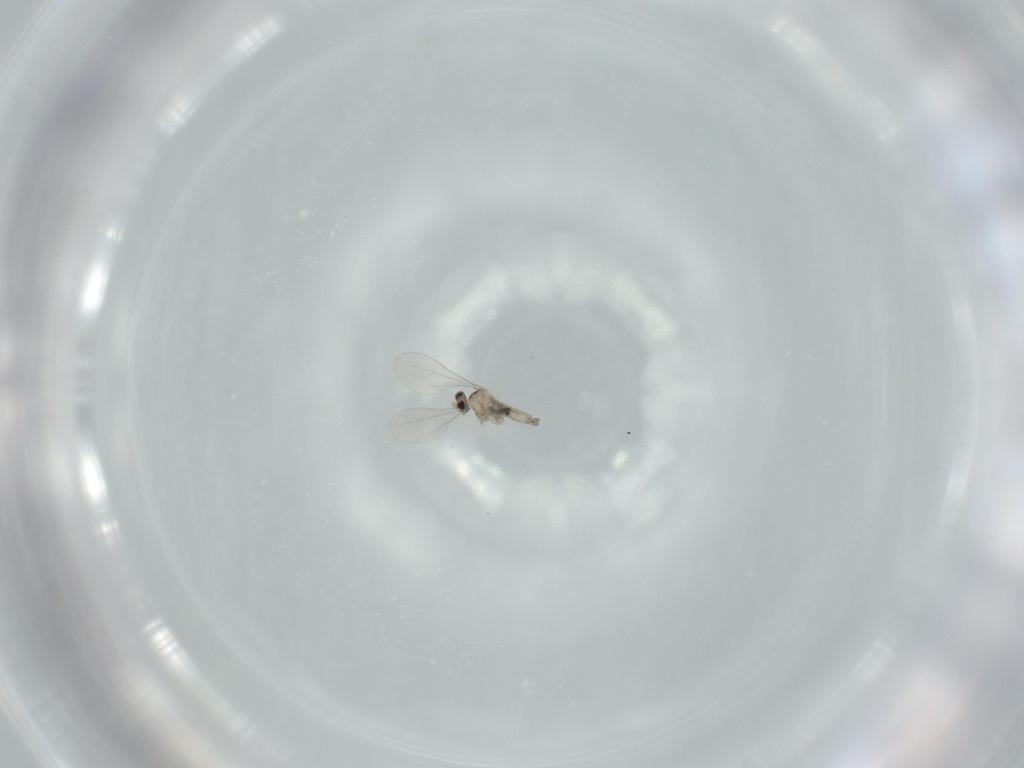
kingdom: Animalia
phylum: Arthropoda
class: Insecta
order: Diptera
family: Cecidomyiidae
